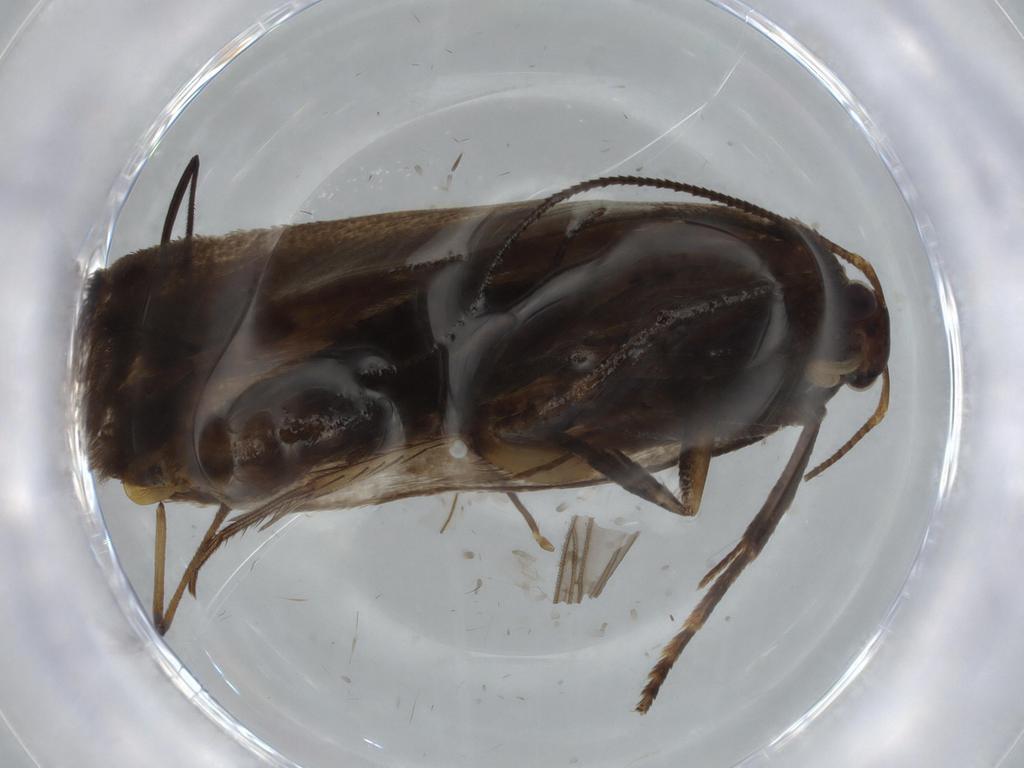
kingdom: Animalia
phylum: Arthropoda
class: Insecta
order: Lepidoptera
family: Gelechiidae
